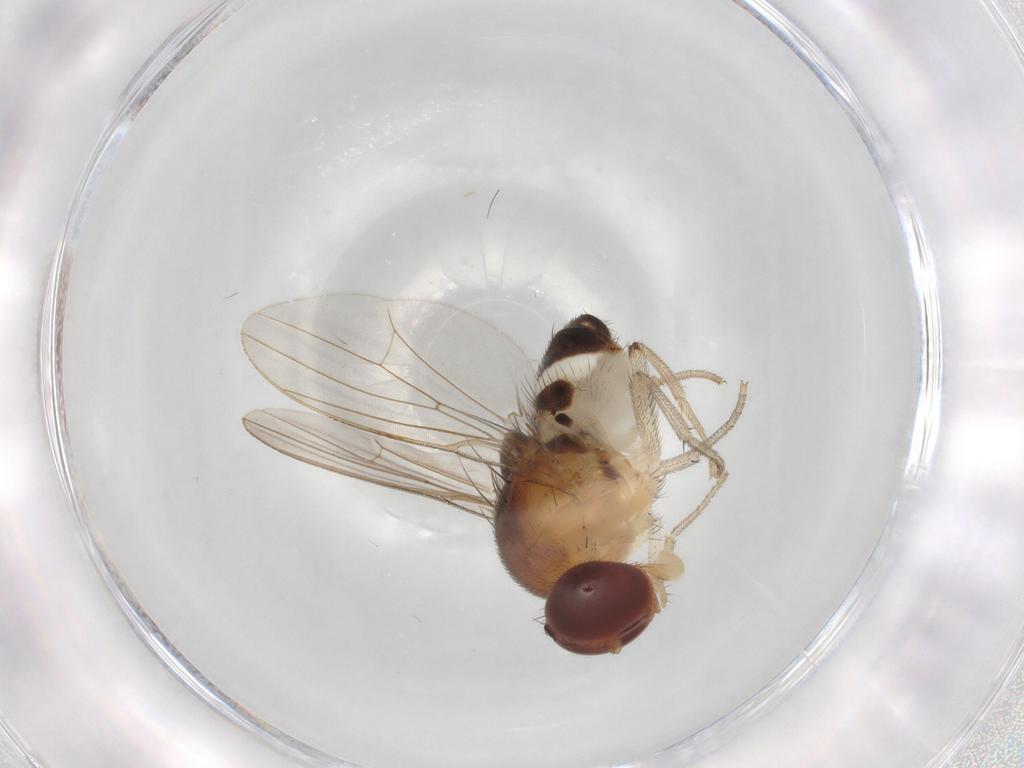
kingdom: Animalia
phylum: Arthropoda
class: Insecta
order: Diptera
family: Drosophilidae
